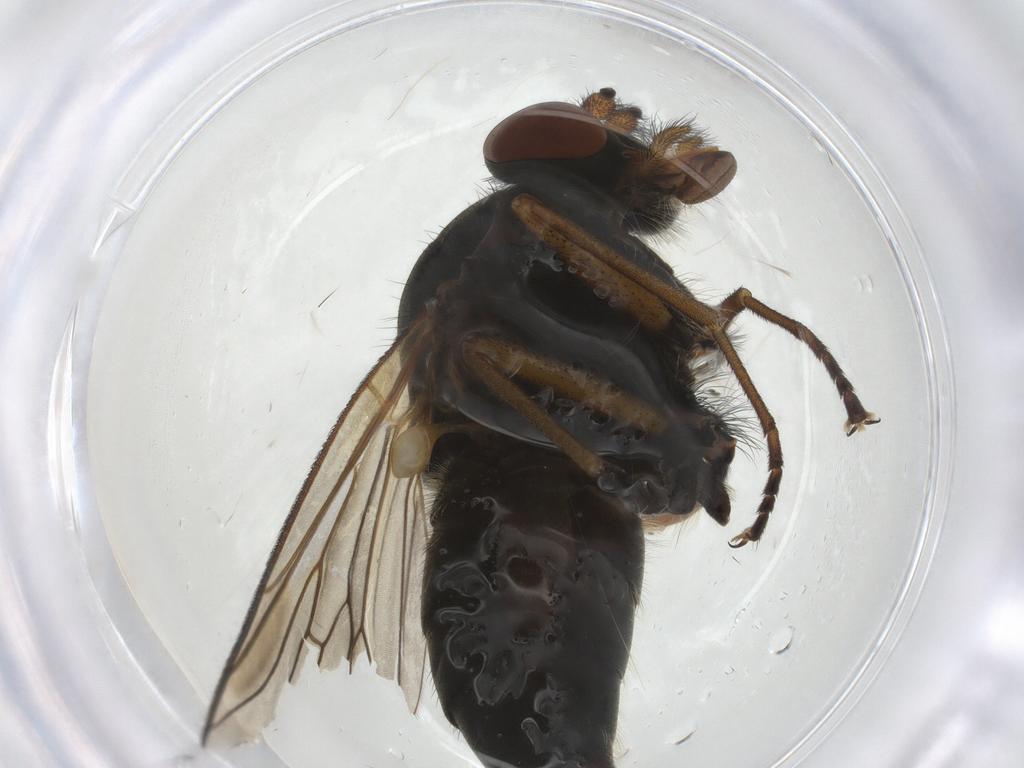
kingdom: Animalia
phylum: Arthropoda
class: Insecta
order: Diptera
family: Rhagionidae
